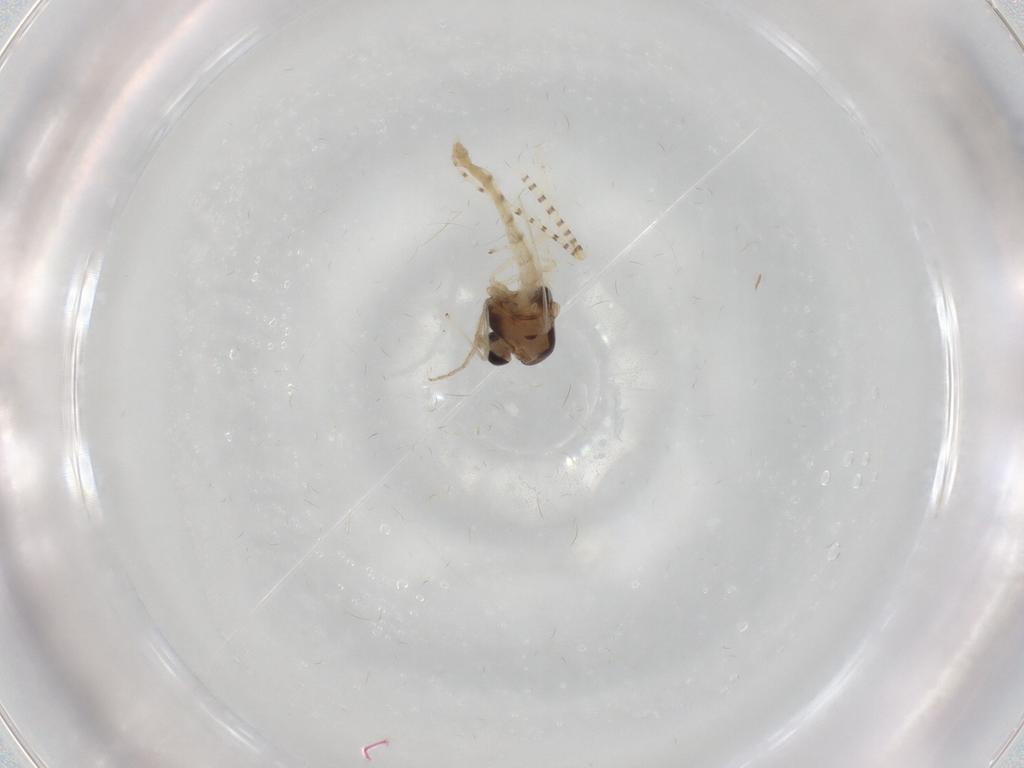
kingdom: Animalia
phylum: Arthropoda
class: Insecta
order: Diptera
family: Chironomidae
